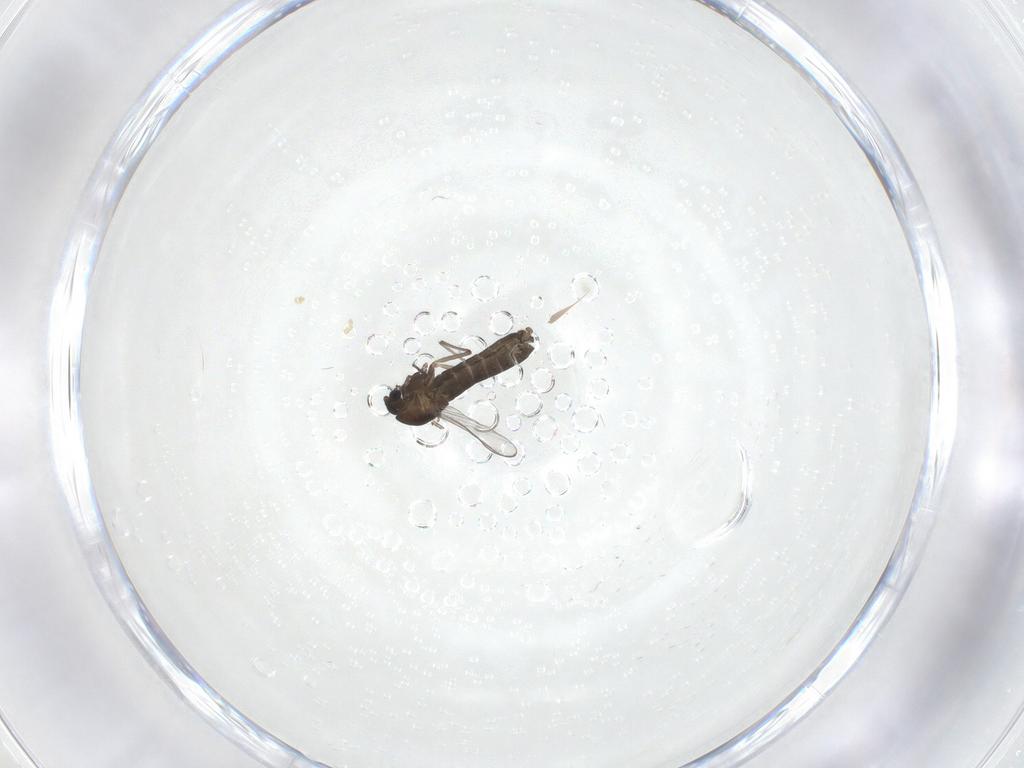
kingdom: Animalia
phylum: Arthropoda
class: Insecta
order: Diptera
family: Chironomidae
